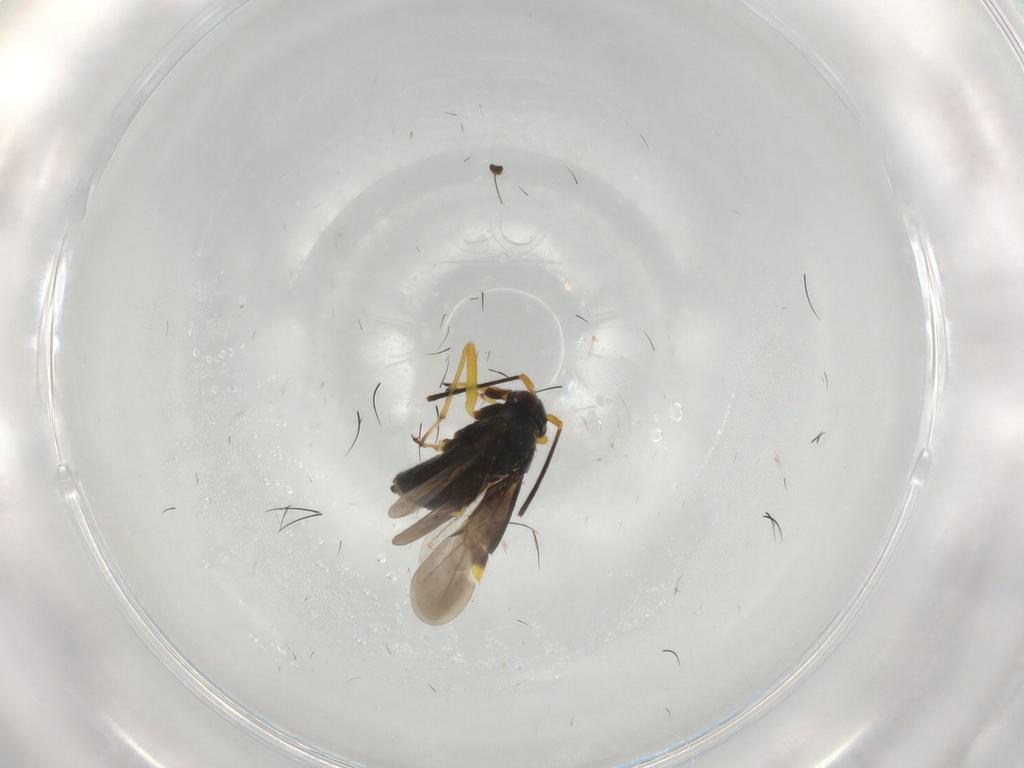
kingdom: Animalia
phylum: Arthropoda
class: Insecta
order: Hemiptera
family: Miridae
